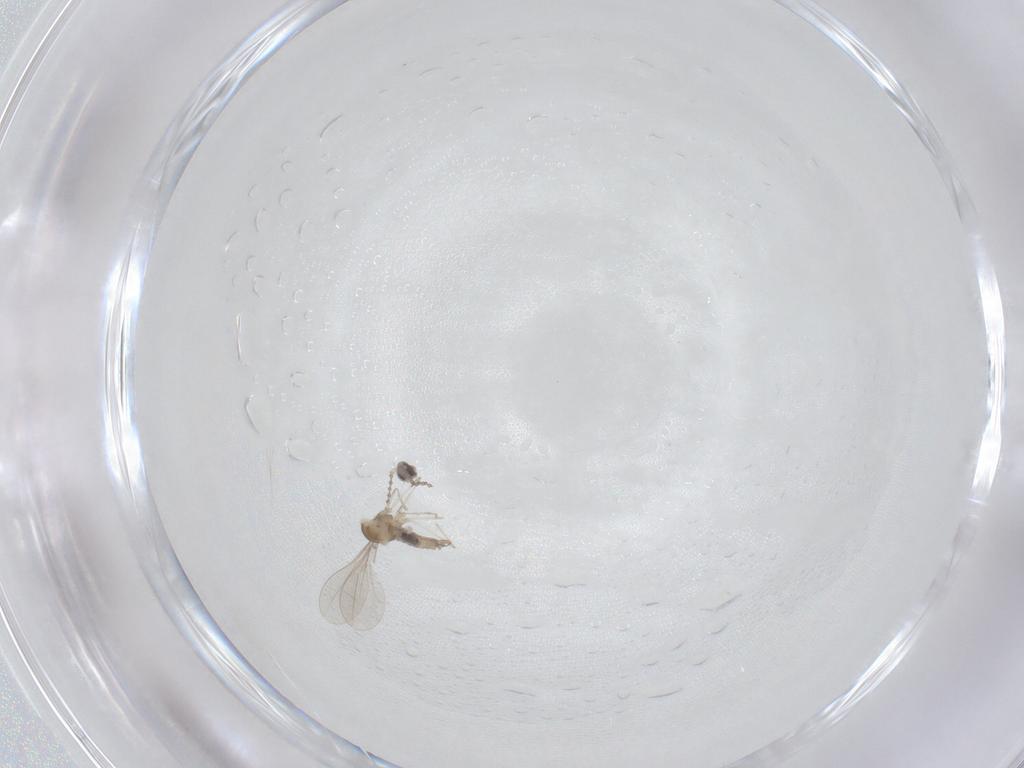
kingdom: Animalia
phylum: Arthropoda
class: Insecta
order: Diptera
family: Cecidomyiidae
